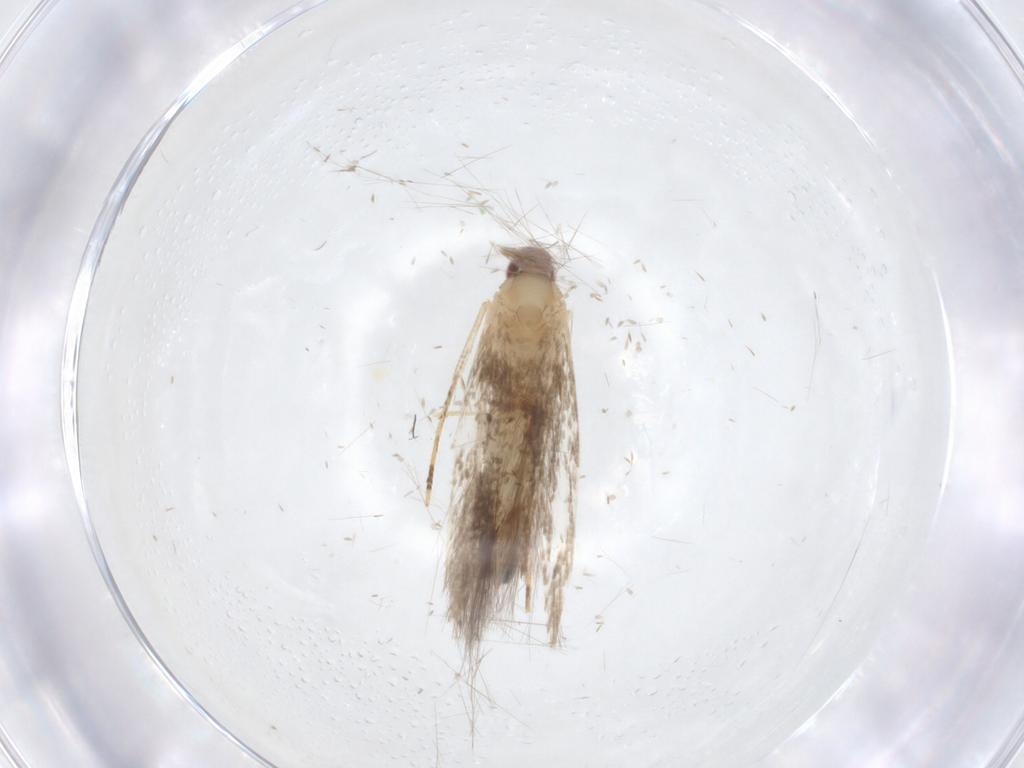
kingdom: Animalia
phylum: Arthropoda
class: Insecta
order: Lepidoptera
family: Cosmopterigidae
